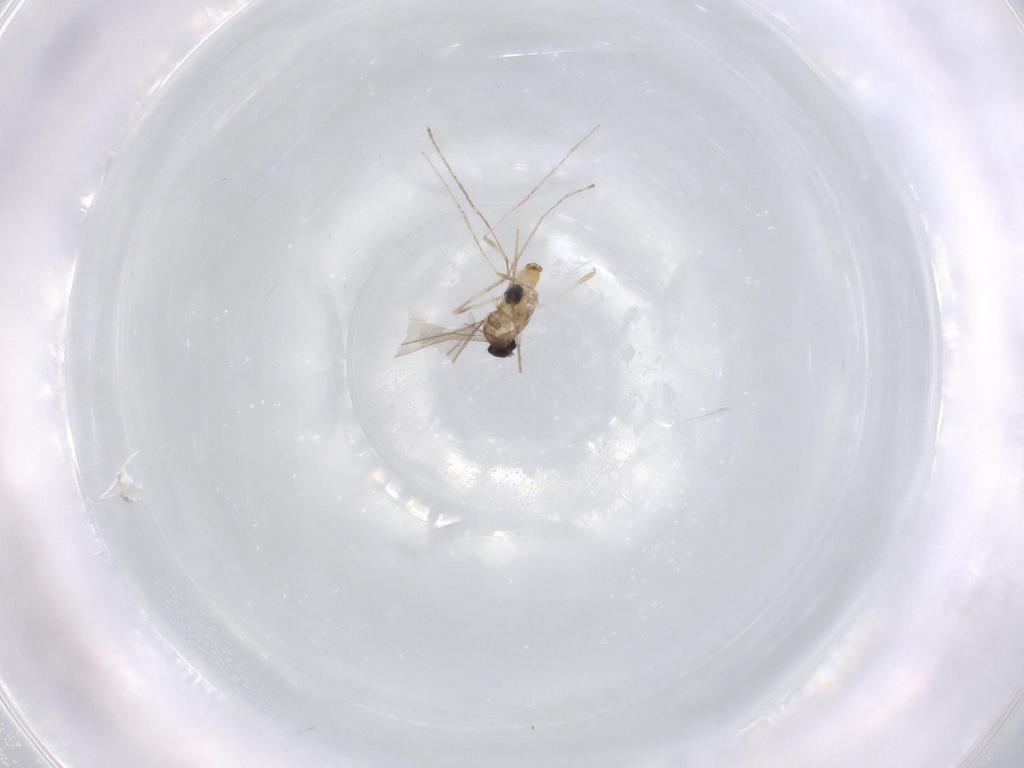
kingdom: Animalia
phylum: Arthropoda
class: Insecta
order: Diptera
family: Cecidomyiidae
